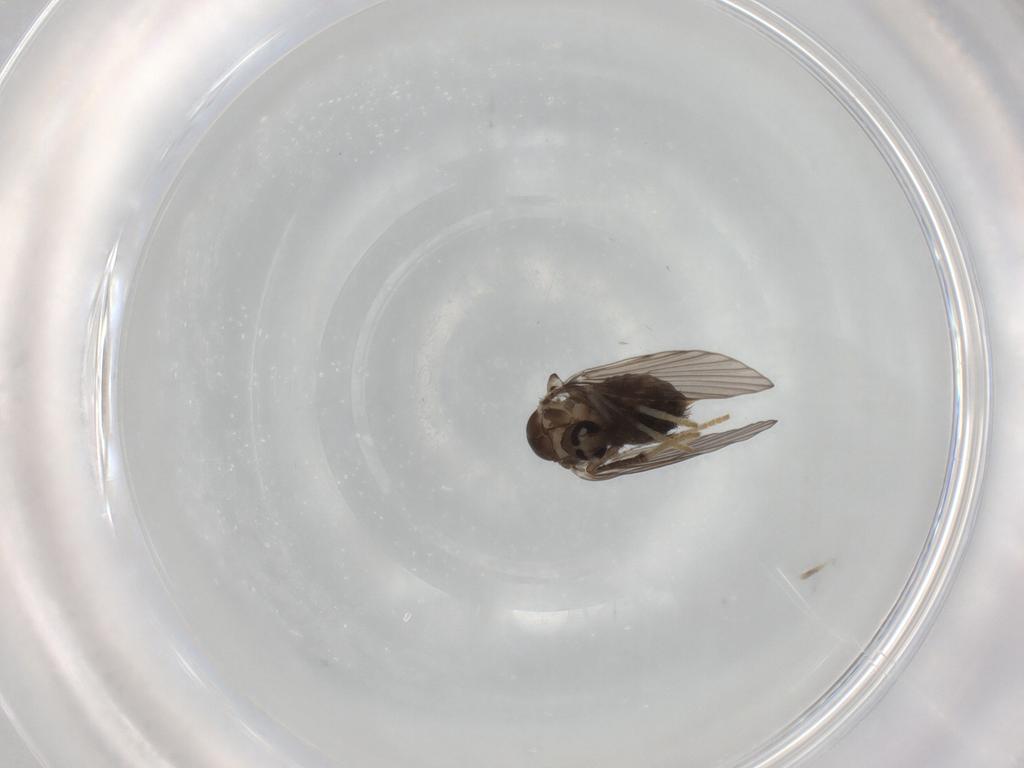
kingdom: Animalia
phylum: Arthropoda
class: Insecta
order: Diptera
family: Psychodidae
